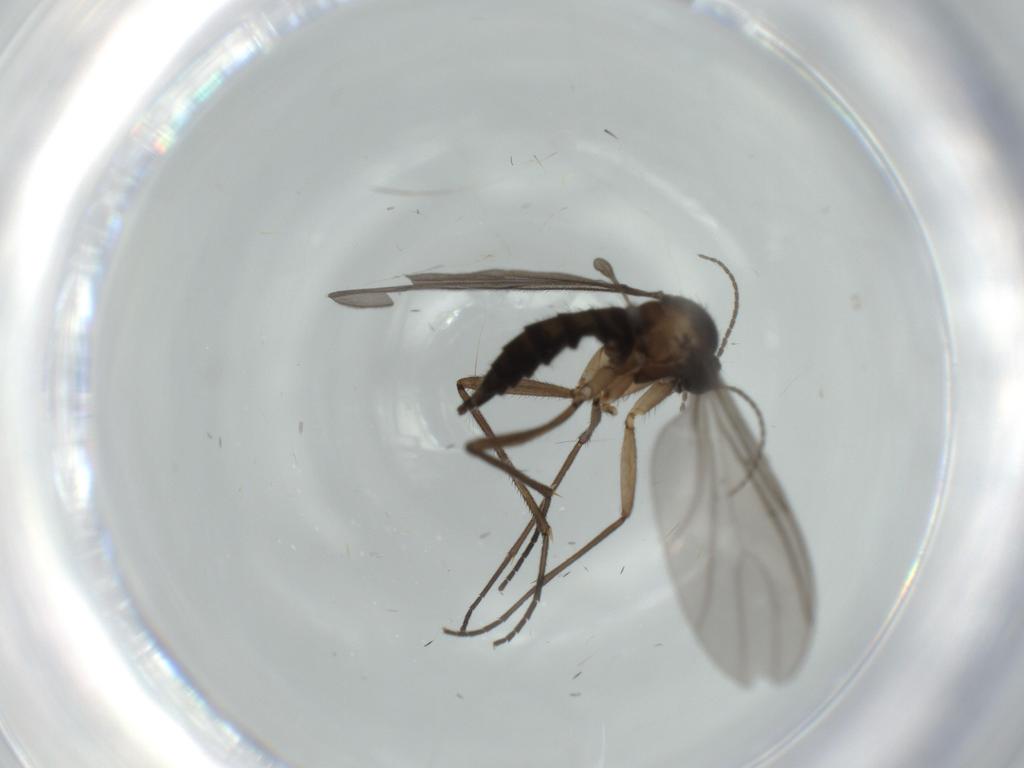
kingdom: Animalia
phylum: Arthropoda
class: Insecta
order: Diptera
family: Sciaridae
